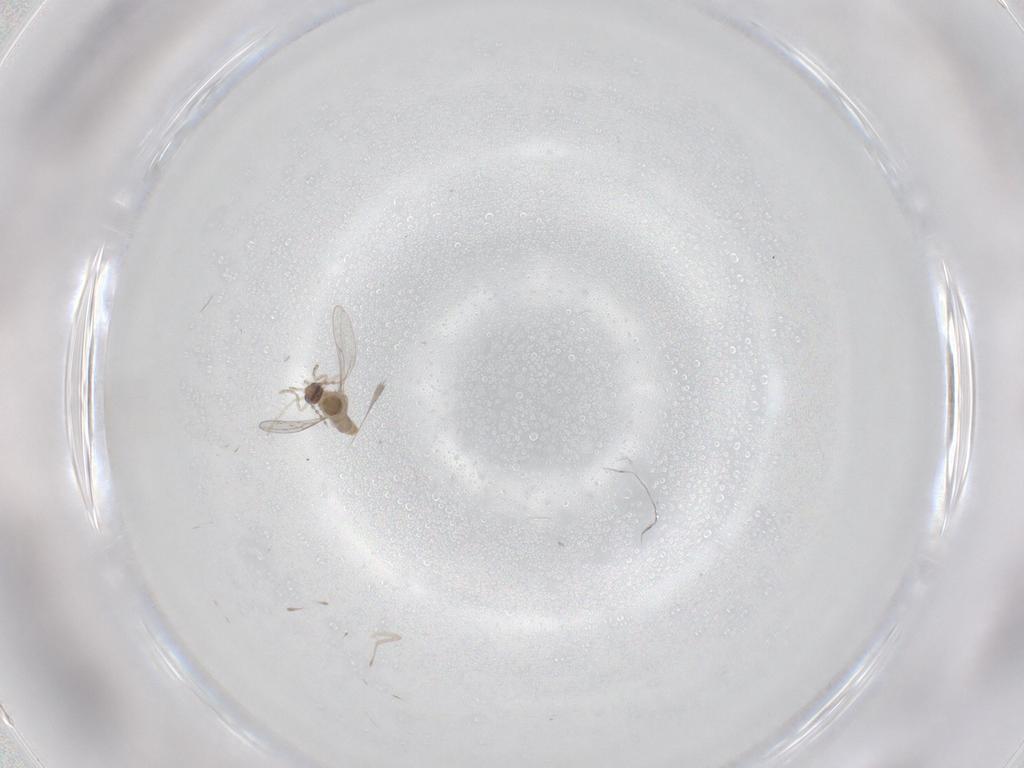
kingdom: Animalia
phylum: Arthropoda
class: Insecta
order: Diptera
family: Cecidomyiidae
